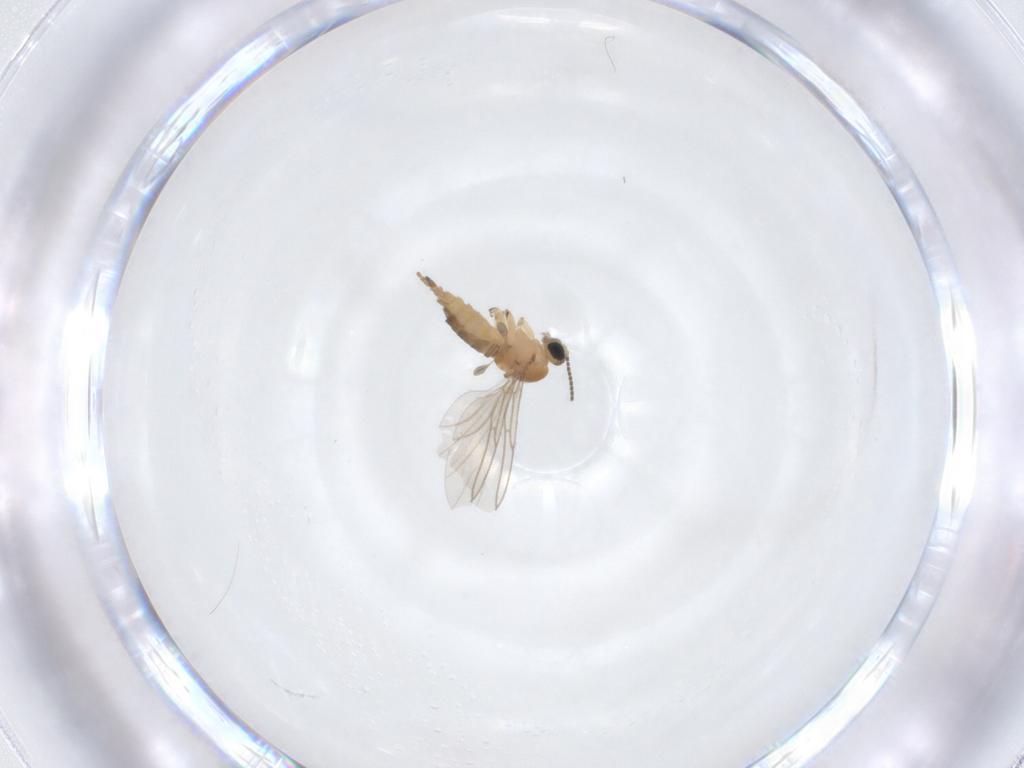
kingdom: Animalia
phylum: Arthropoda
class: Insecta
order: Diptera
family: Sciaridae
